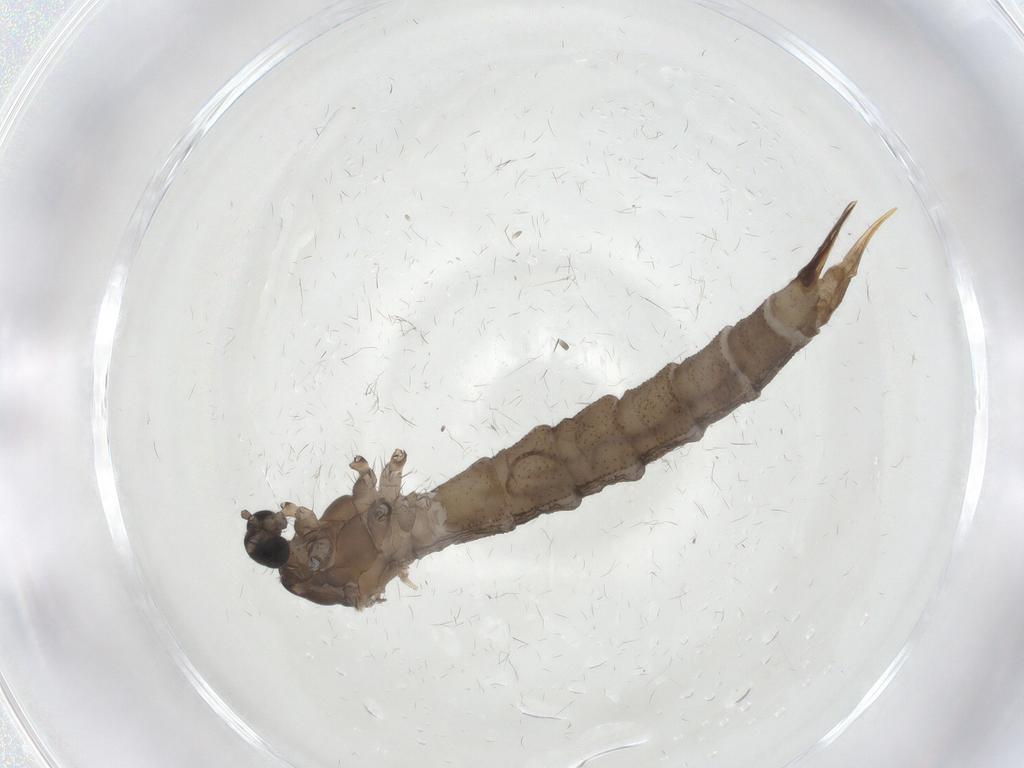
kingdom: Animalia
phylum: Arthropoda
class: Insecta
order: Diptera
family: Limoniidae
